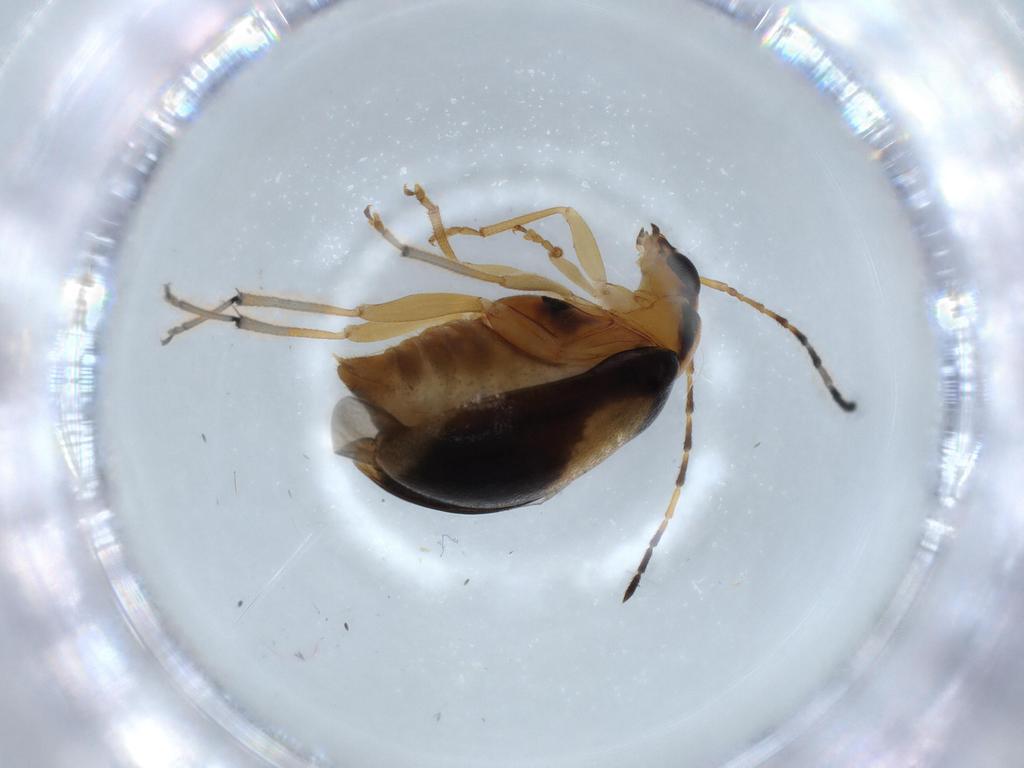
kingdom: Animalia
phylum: Arthropoda
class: Insecta
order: Coleoptera
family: Chrysomelidae
